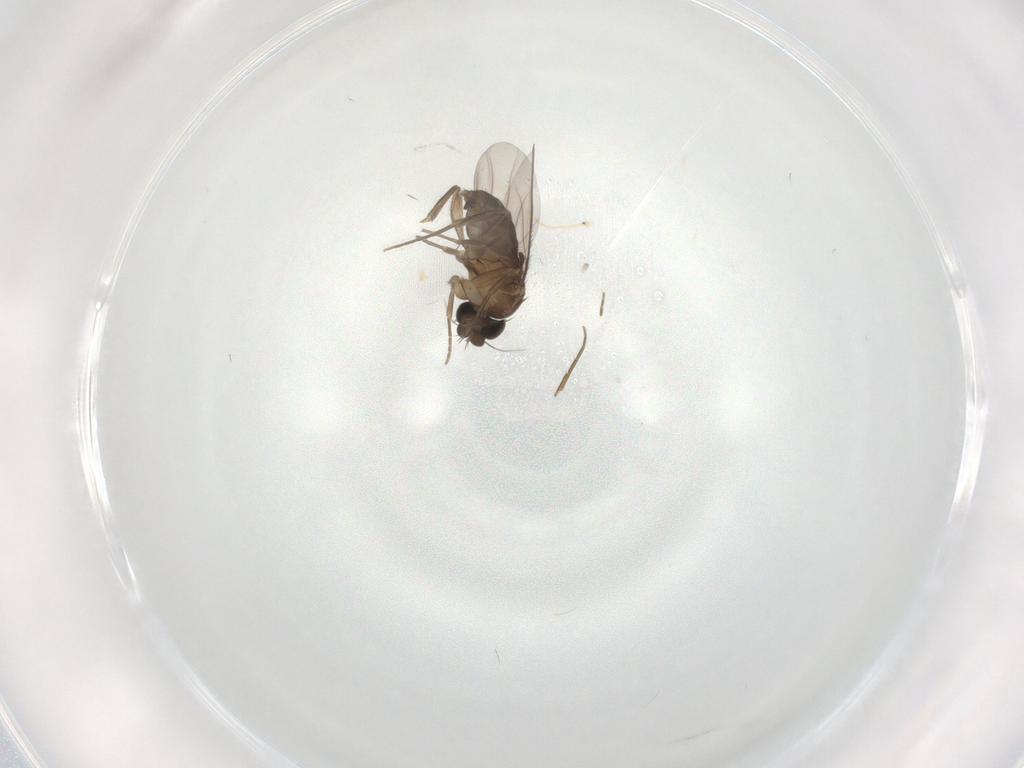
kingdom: Animalia
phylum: Arthropoda
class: Insecta
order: Diptera
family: Phoridae
